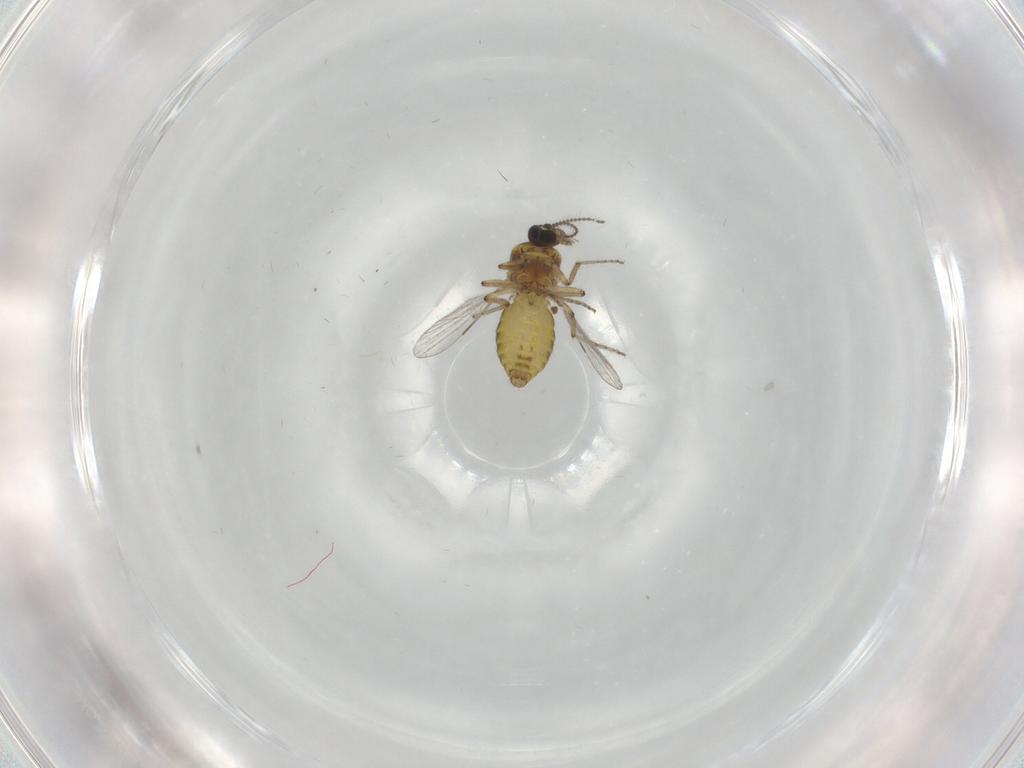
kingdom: Animalia
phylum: Arthropoda
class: Insecta
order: Diptera
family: Ceratopogonidae
